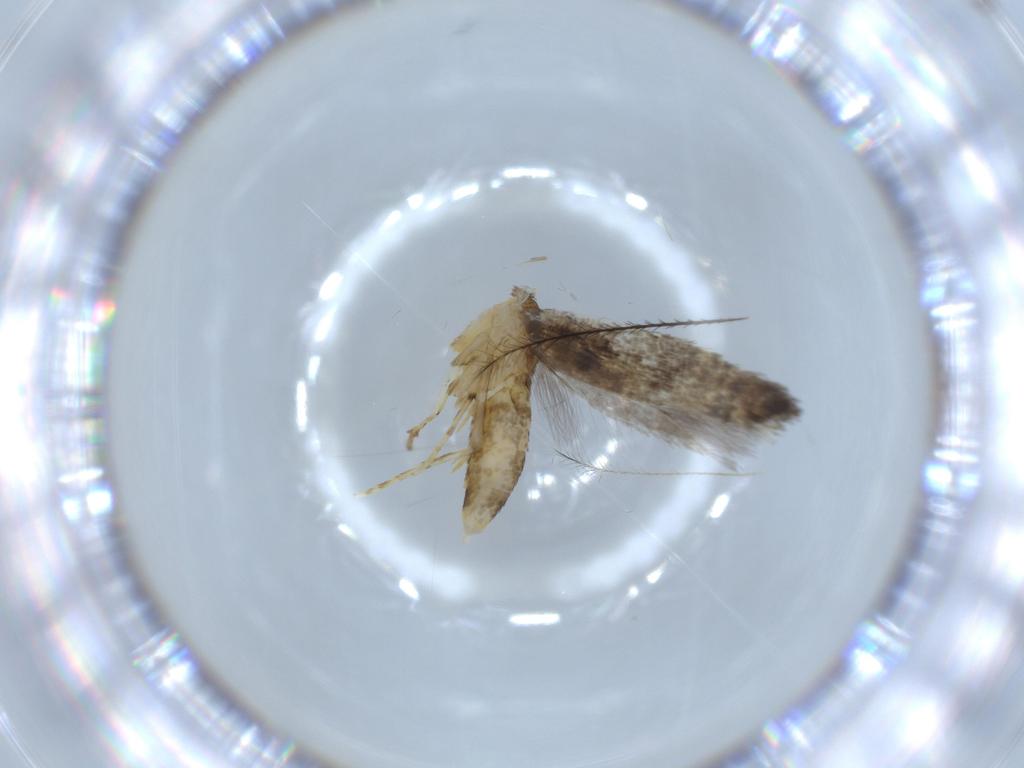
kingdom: Animalia
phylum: Arthropoda
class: Insecta
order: Lepidoptera
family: Argyresthiidae
